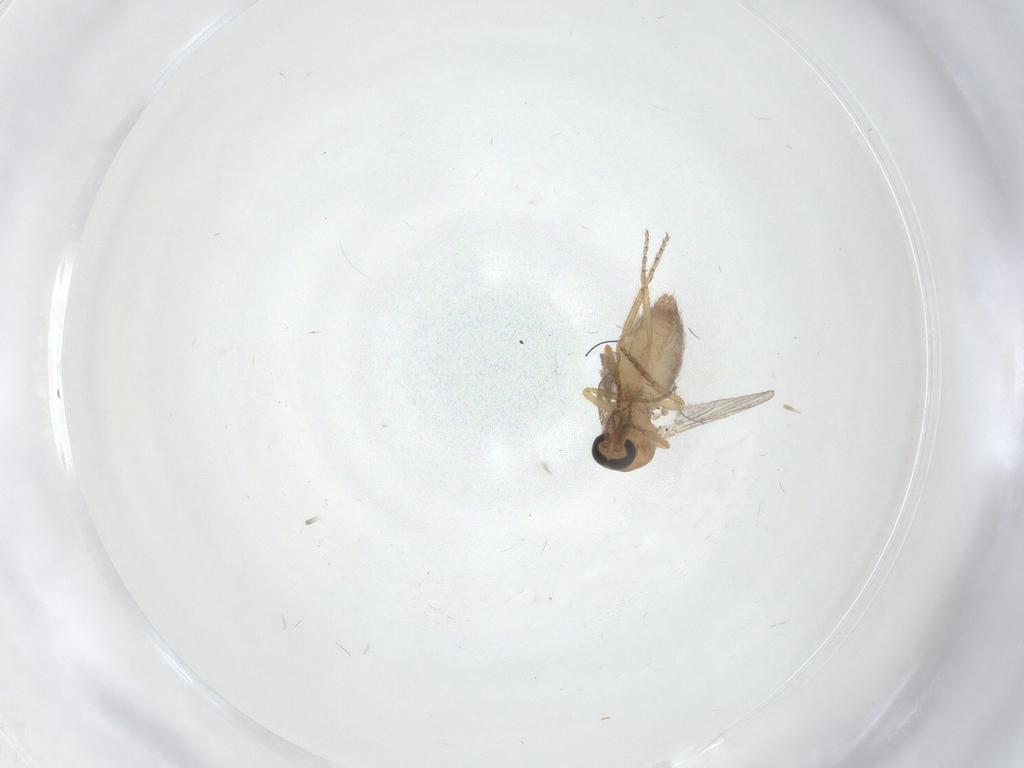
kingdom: Animalia
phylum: Arthropoda
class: Insecta
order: Diptera
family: Ceratopogonidae
